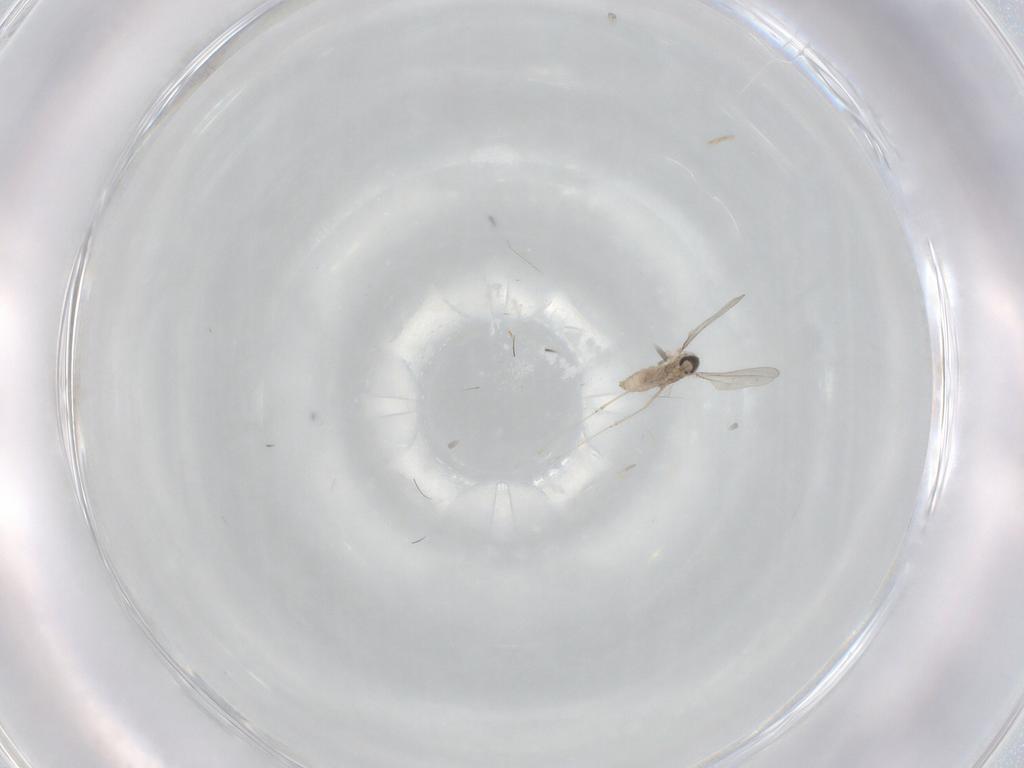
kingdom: Animalia
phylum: Arthropoda
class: Insecta
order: Diptera
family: Cecidomyiidae
